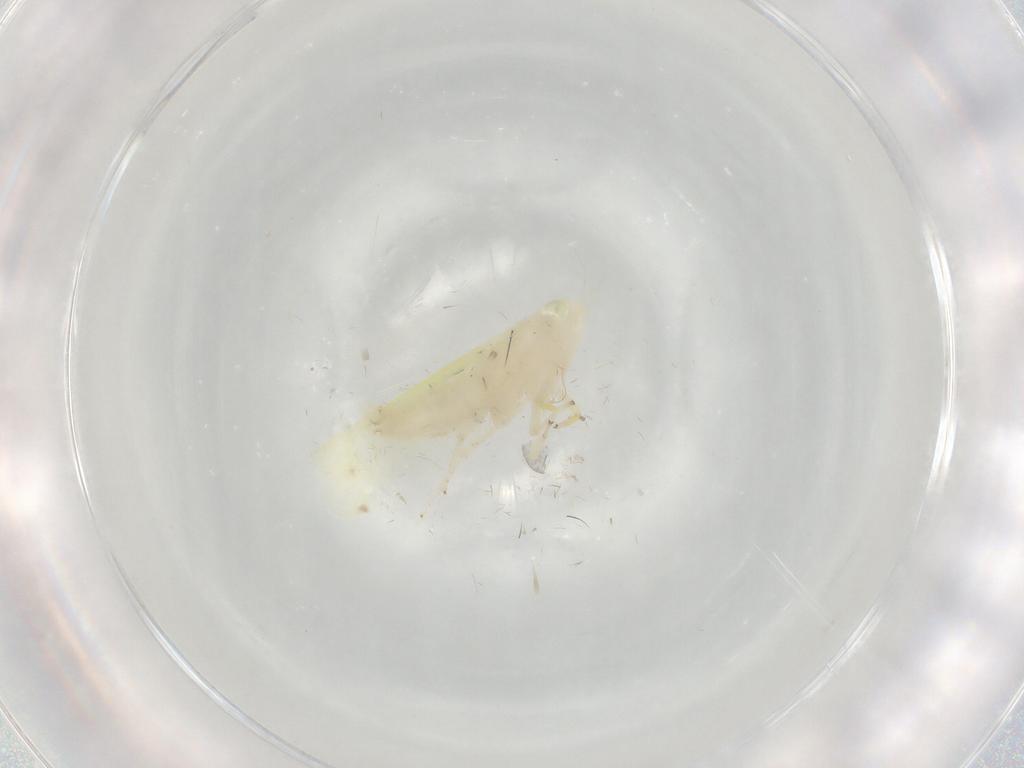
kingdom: Animalia
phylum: Arthropoda
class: Insecta
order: Hemiptera
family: Cicadellidae
